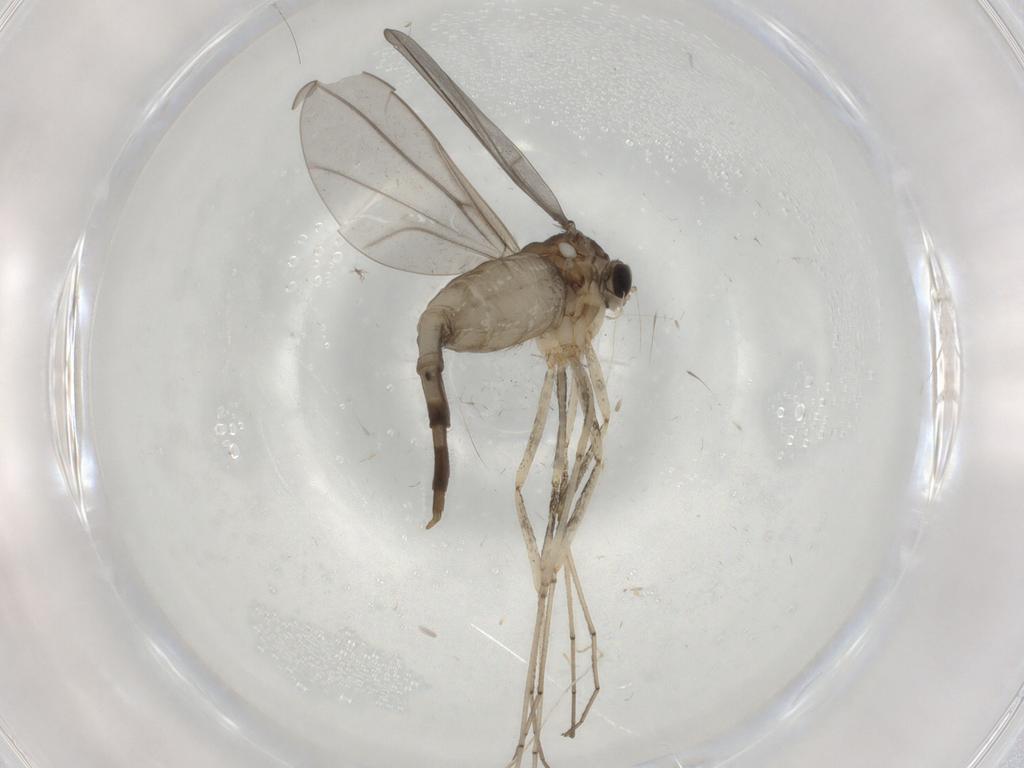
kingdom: Animalia
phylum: Arthropoda
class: Insecta
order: Diptera
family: Cecidomyiidae
